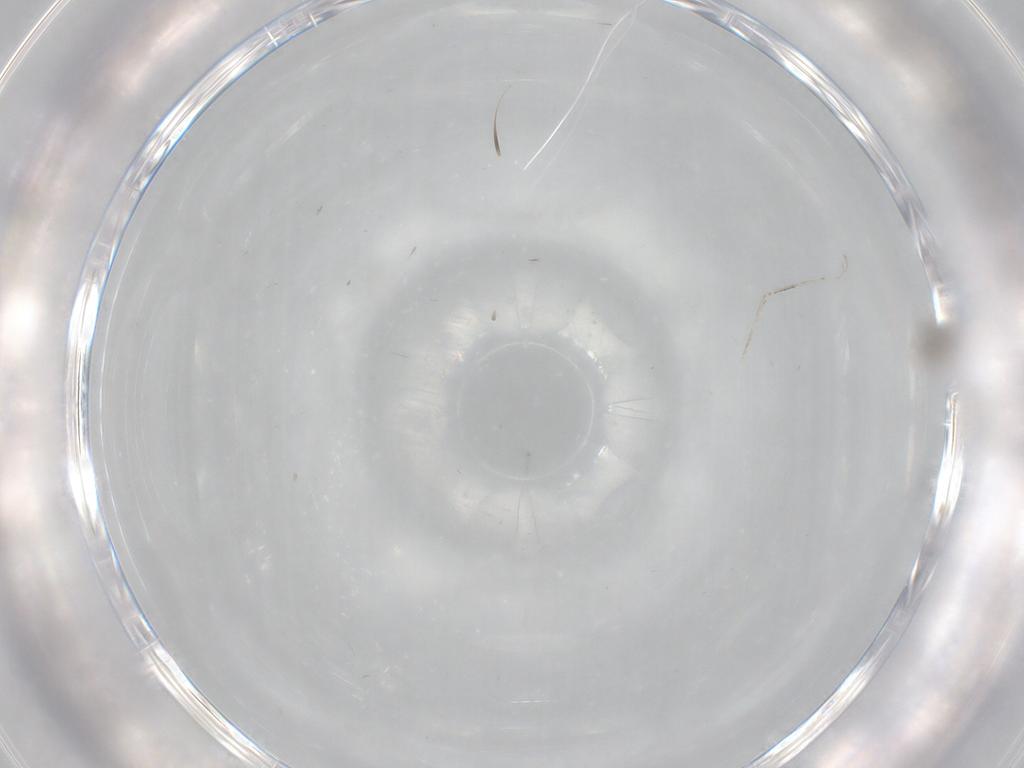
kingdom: Animalia
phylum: Arthropoda
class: Insecta
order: Diptera
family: Cecidomyiidae
